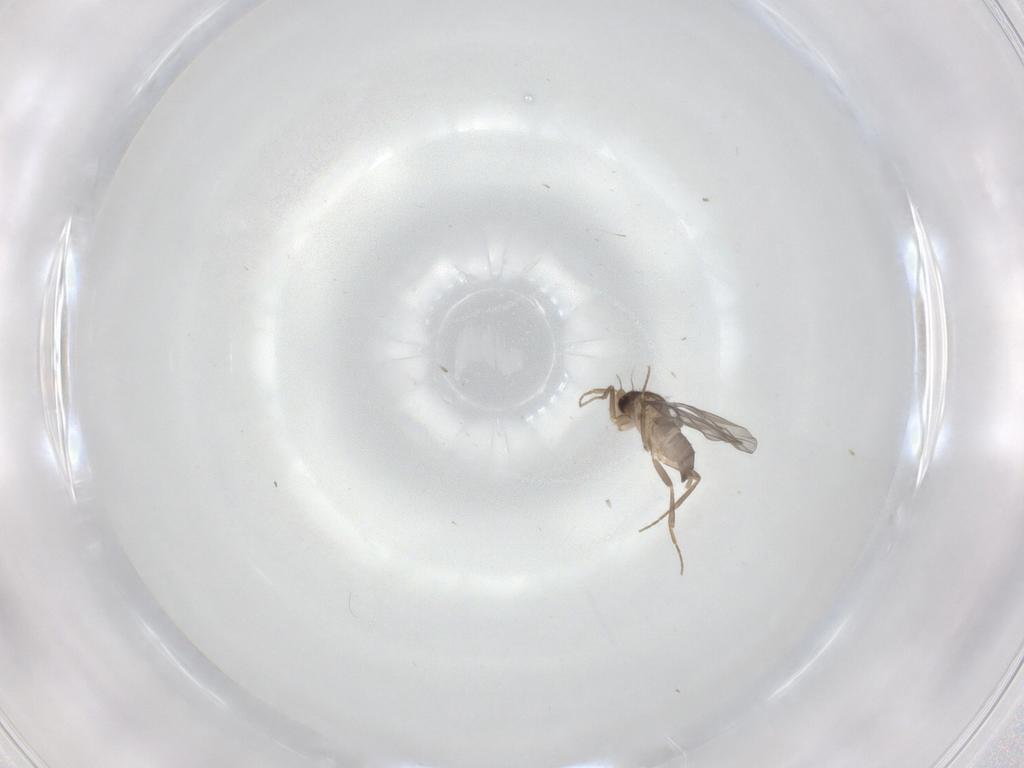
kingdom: Animalia
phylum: Arthropoda
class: Insecta
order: Diptera
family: Psychodidae
